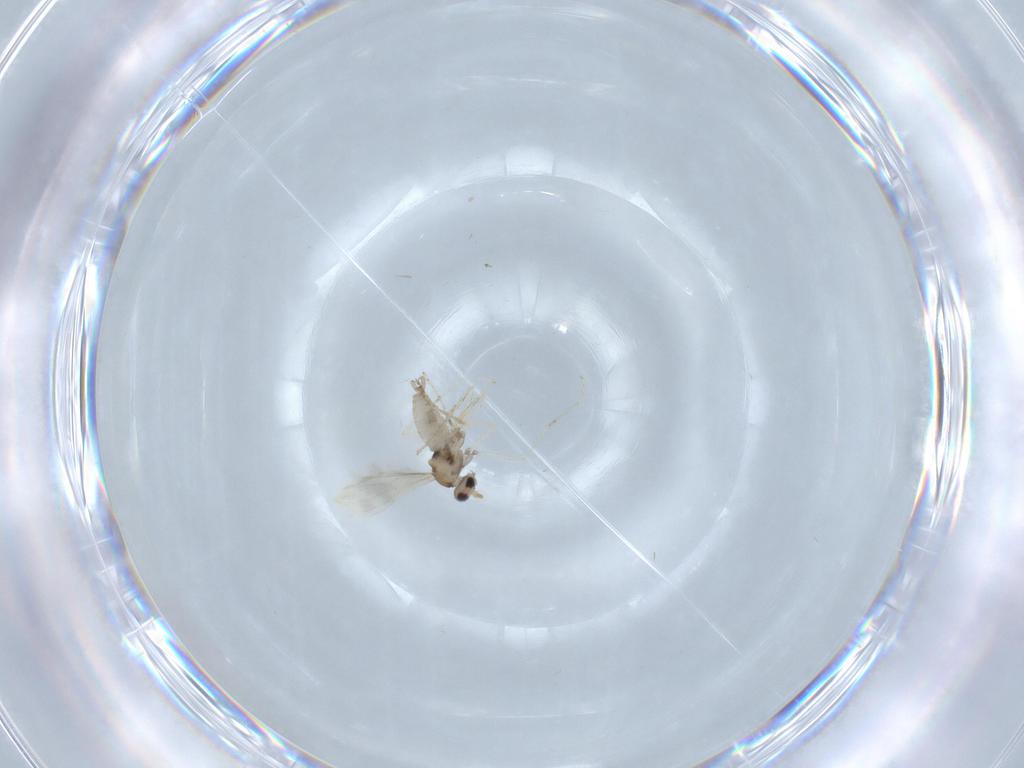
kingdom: Animalia
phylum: Arthropoda
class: Insecta
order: Diptera
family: Cecidomyiidae
